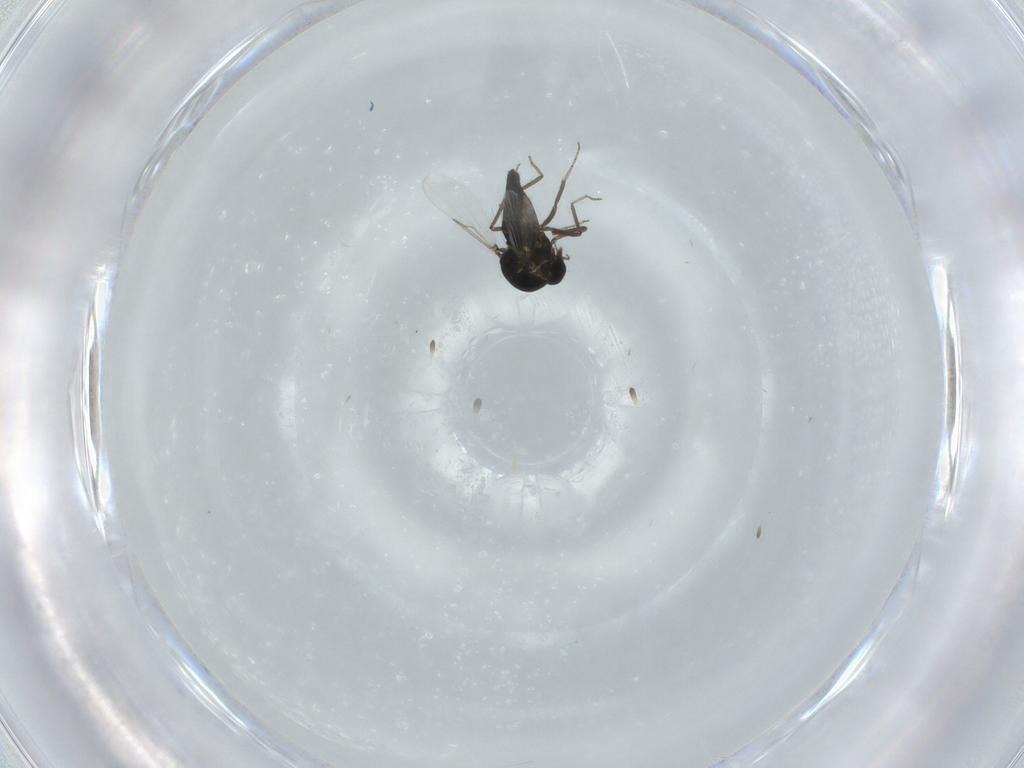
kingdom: Animalia
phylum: Arthropoda
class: Insecta
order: Diptera
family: Ceratopogonidae
